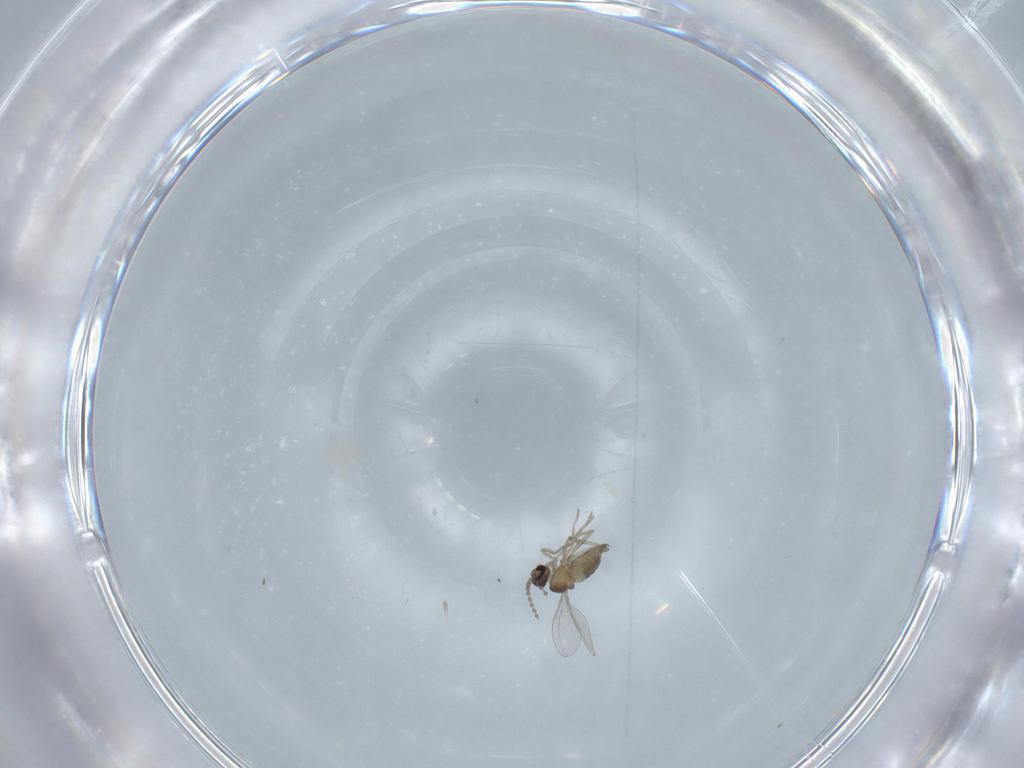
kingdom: Animalia
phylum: Arthropoda
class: Insecta
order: Diptera
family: Cecidomyiidae
